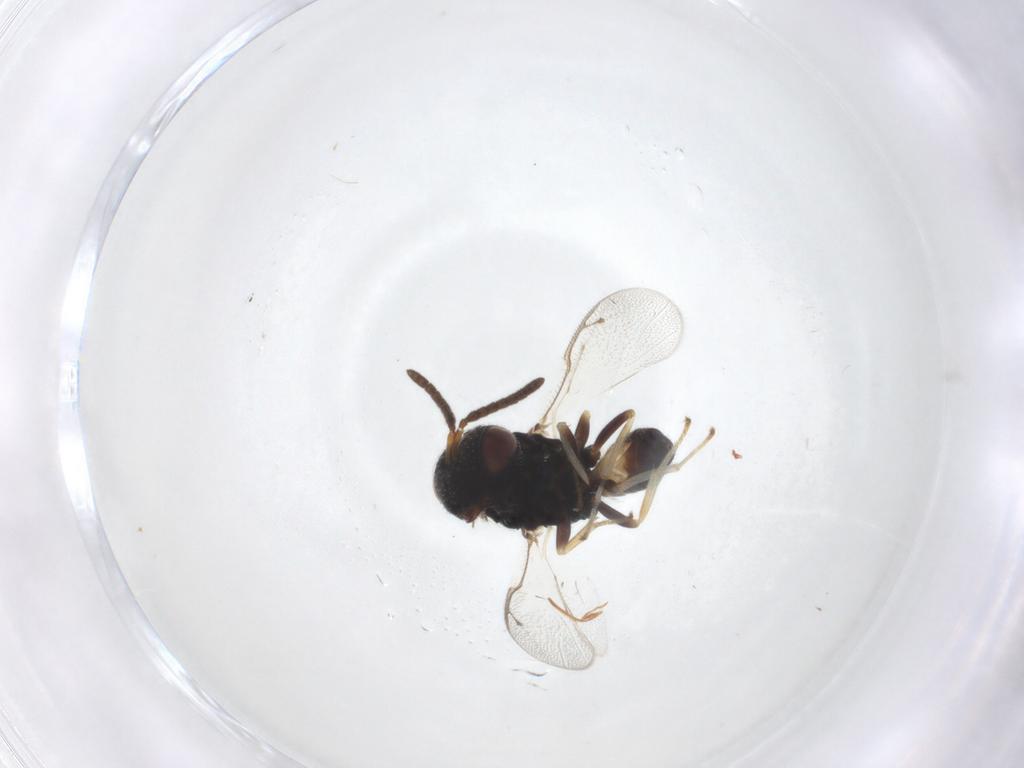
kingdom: Animalia
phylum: Arthropoda
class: Insecta
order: Hymenoptera
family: Pteromalidae
